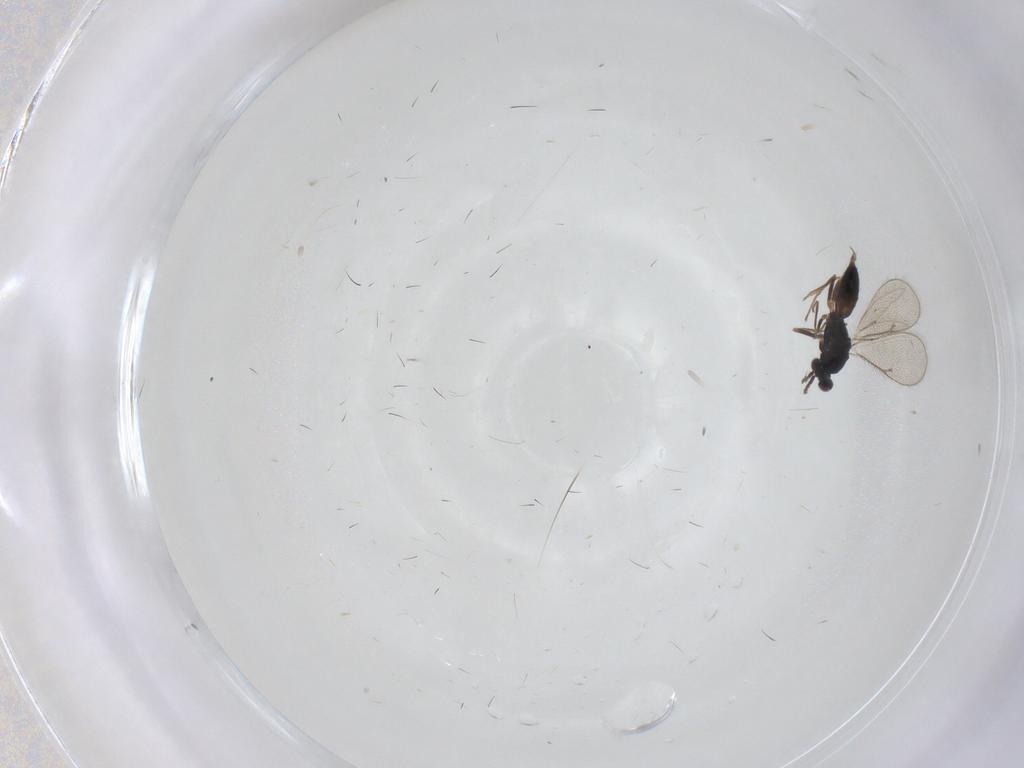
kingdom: Animalia
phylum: Arthropoda
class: Insecta
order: Hymenoptera
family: Eulophidae
